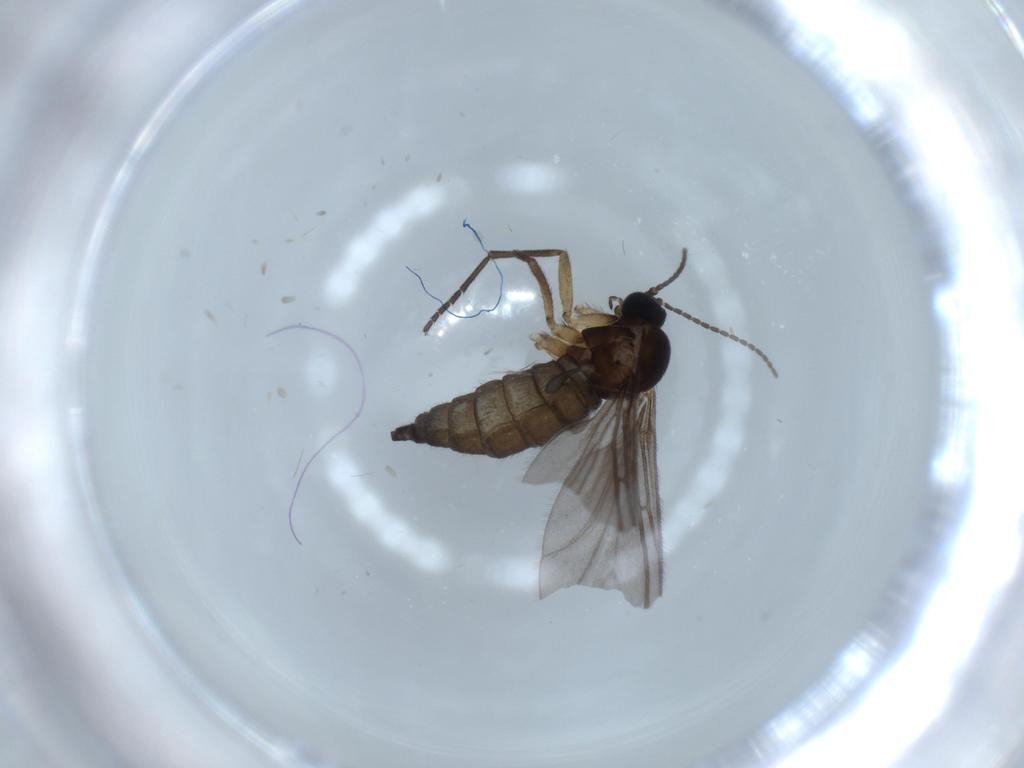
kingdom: Animalia
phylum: Arthropoda
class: Insecta
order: Diptera
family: Sciaridae
